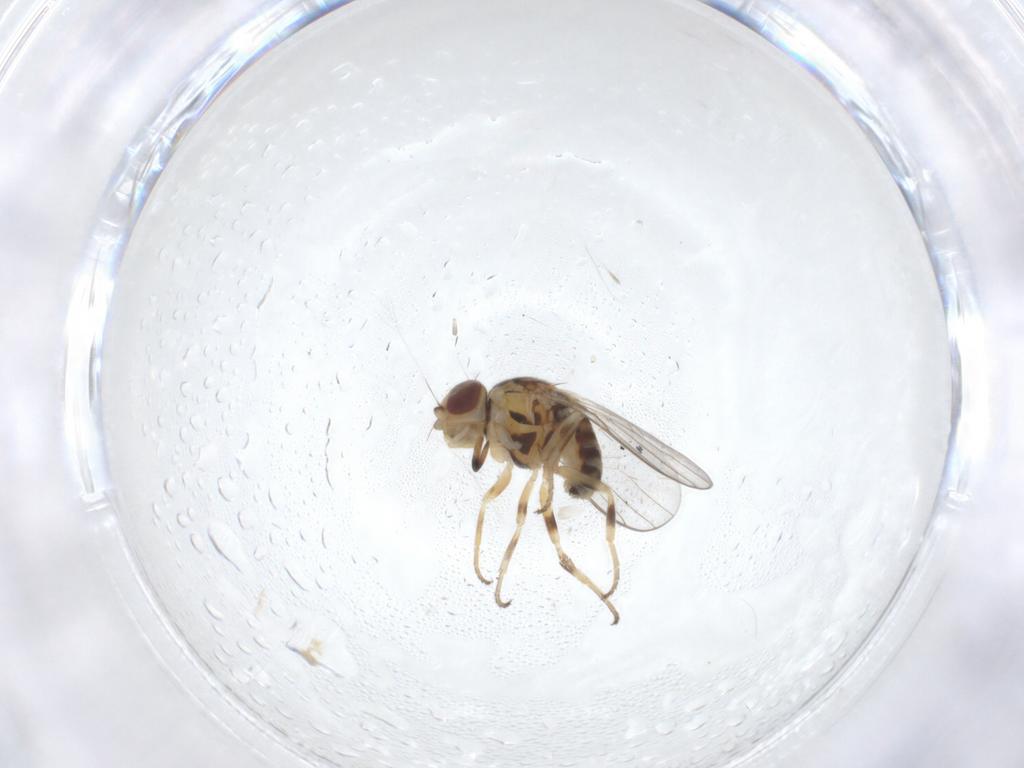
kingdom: Animalia
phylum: Arthropoda
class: Insecta
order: Diptera
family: Chloropidae
